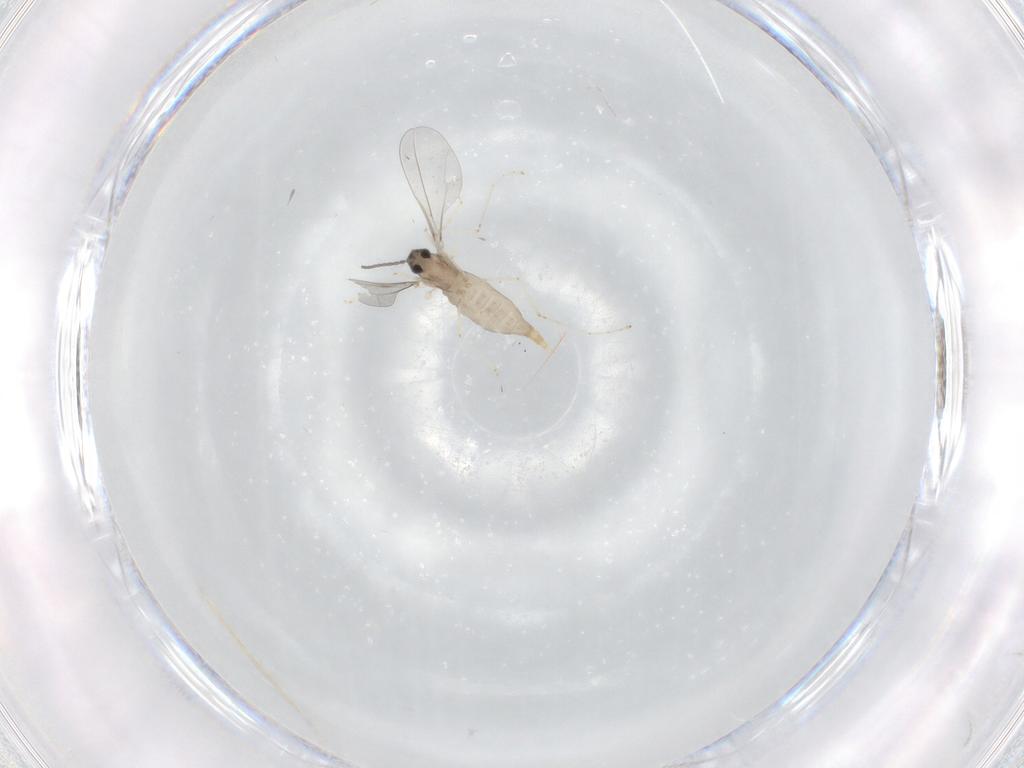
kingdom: Animalia
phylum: Arthropoda
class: Insecta
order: Diptera
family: Cecidomyiidae
